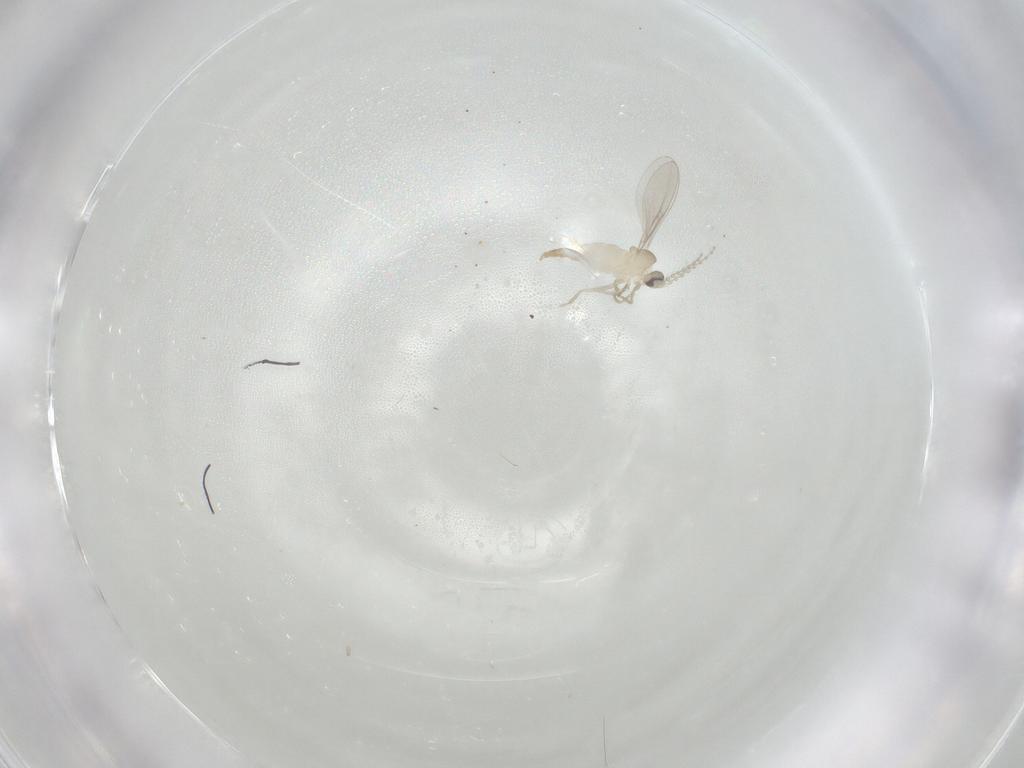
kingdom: Animalia
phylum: Arthropoda
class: Insecta
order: Diptera
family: Cecidomyiidae
